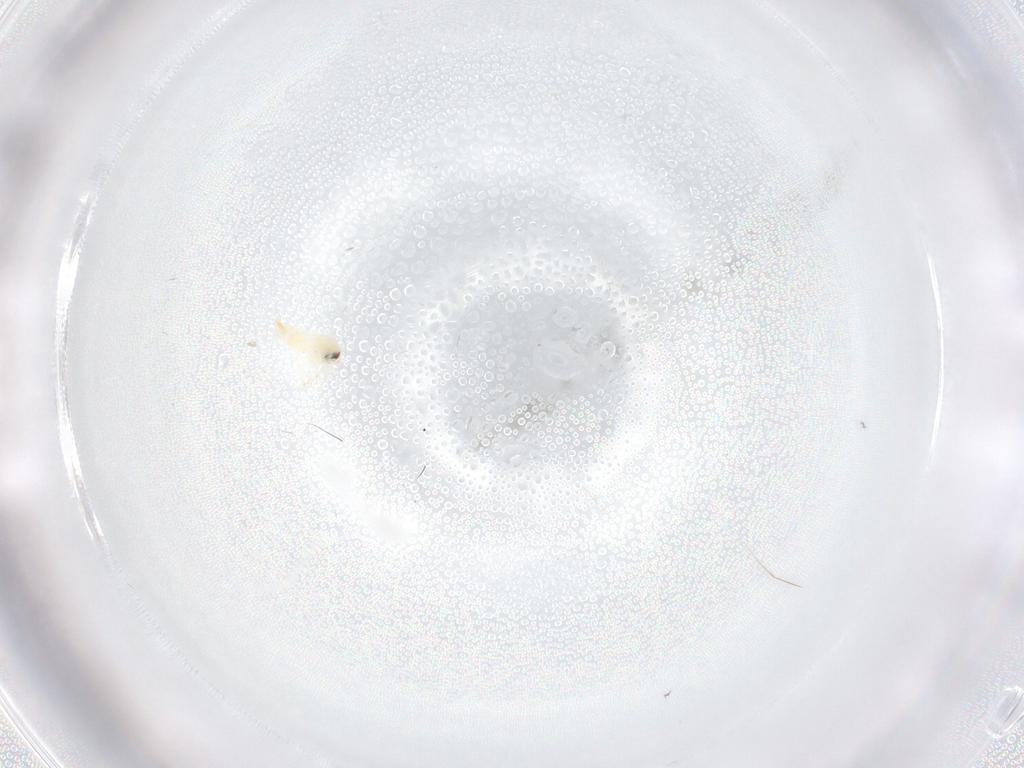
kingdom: Animalia
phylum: Arthropoda
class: Insecta
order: Hemiptera
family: Aleyrodidae
